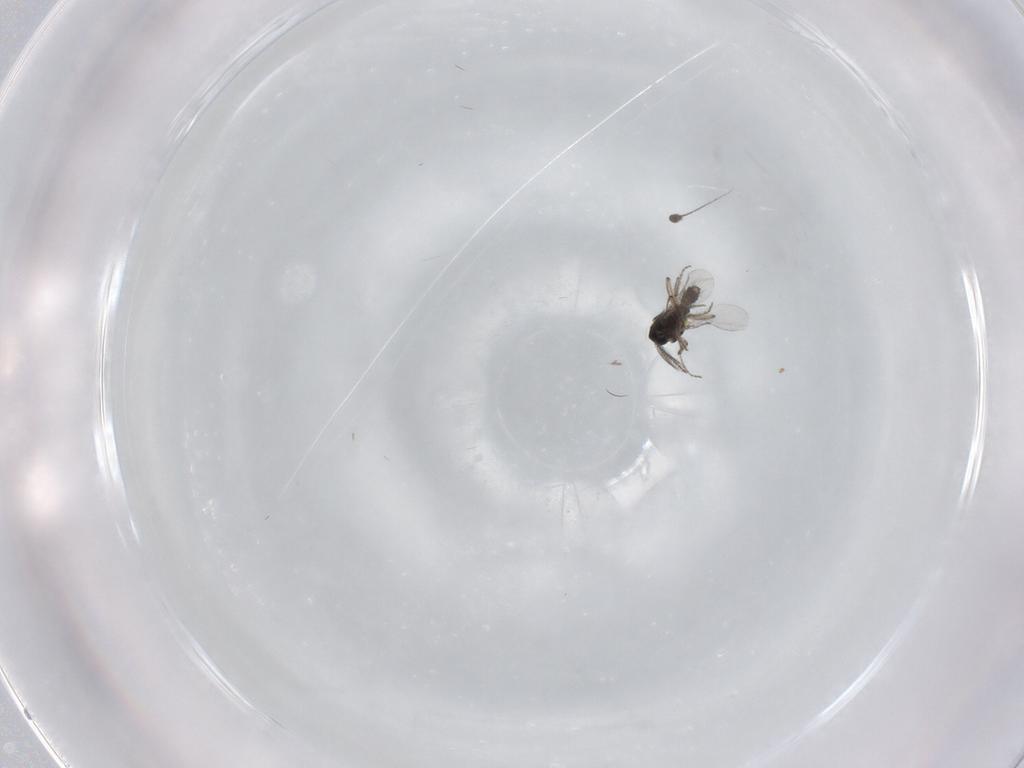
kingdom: Animalia
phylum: Arthropoda
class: Insecta
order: Diptera
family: Ceratopogonidae
